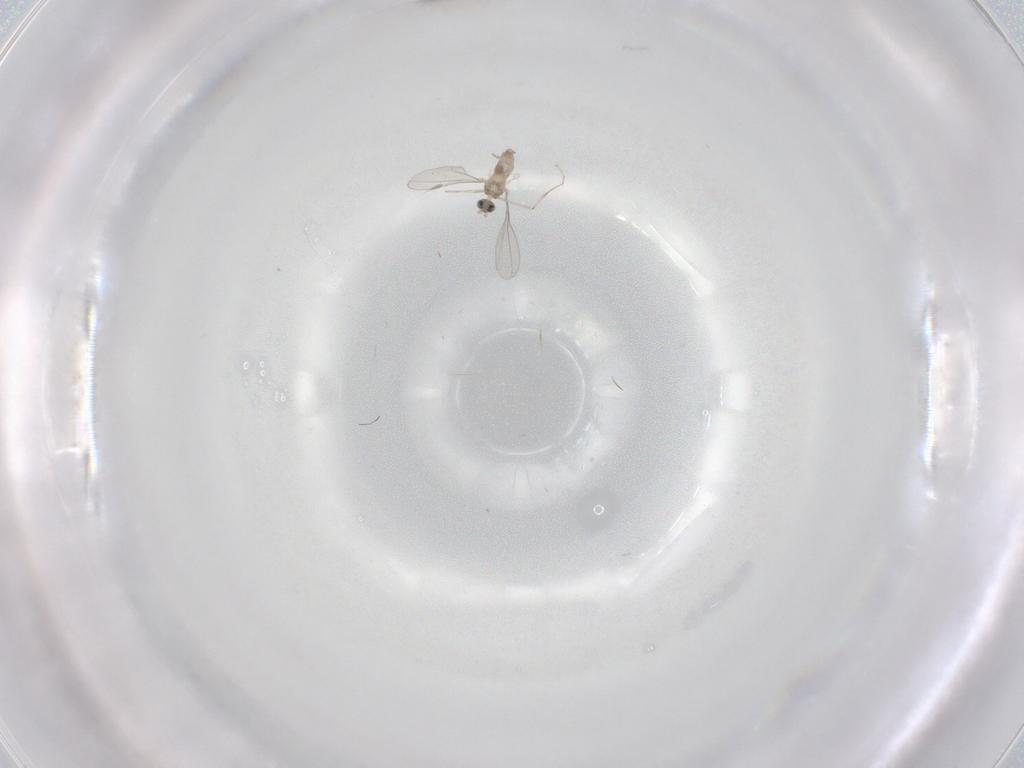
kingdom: Animalia
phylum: Arthropoda
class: Insecta
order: Diptera
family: Cecidomyiidae
